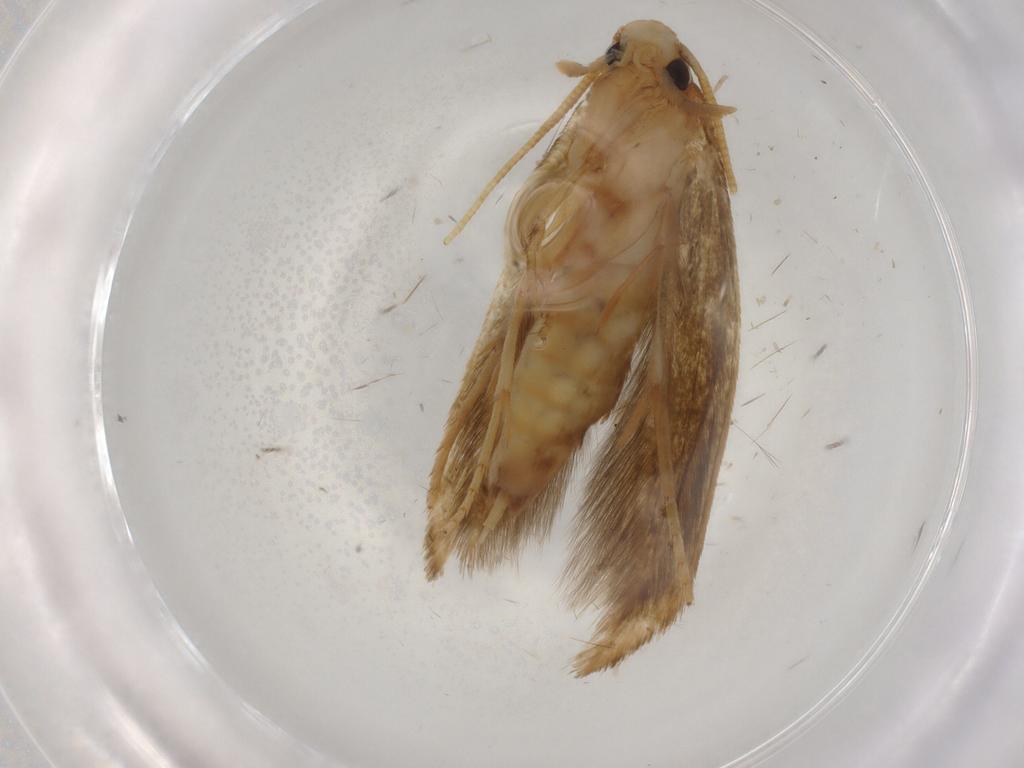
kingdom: Animalia
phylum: Arthropoda
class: Insecta
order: Lepidoptera
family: Tineidae
